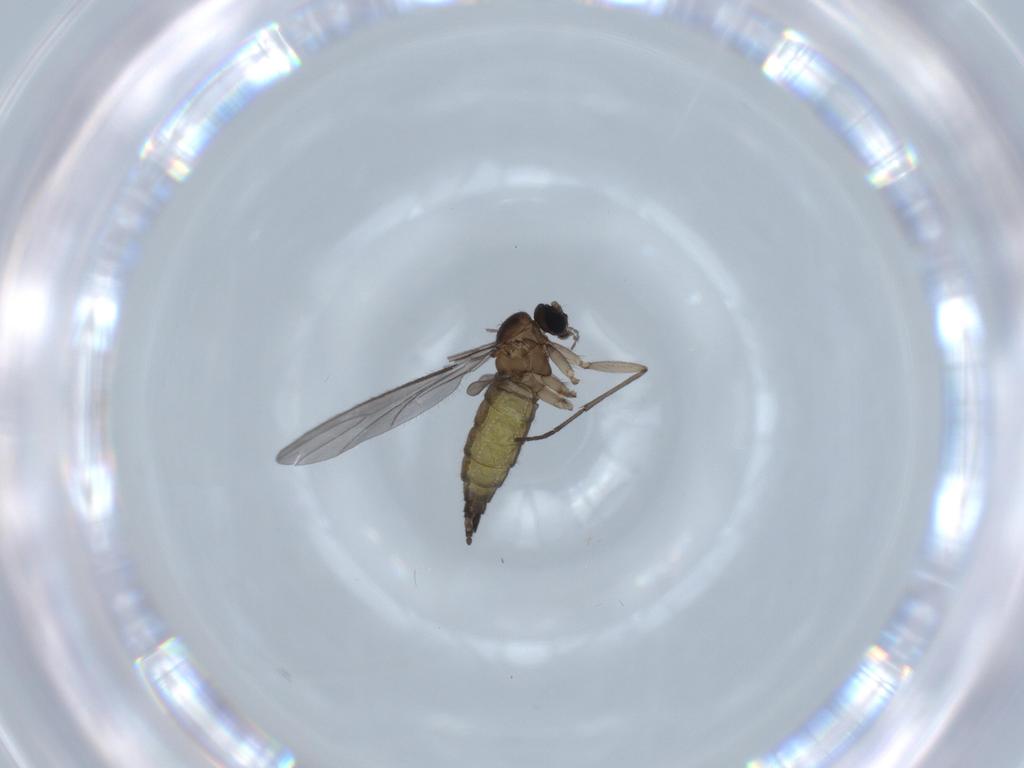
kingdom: Animalia
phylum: Arthropoda
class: Insecta
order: Diptera
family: Sciaridae
